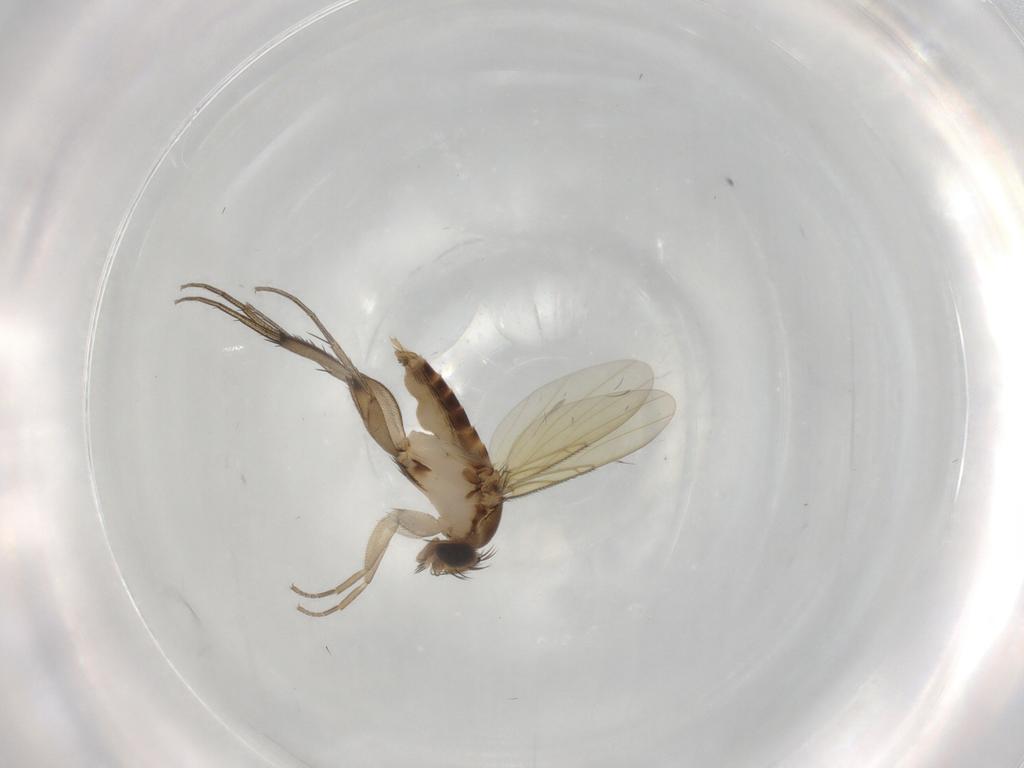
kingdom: Animalia
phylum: Arthropoda
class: Insecta
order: Diptera
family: Phoridae
